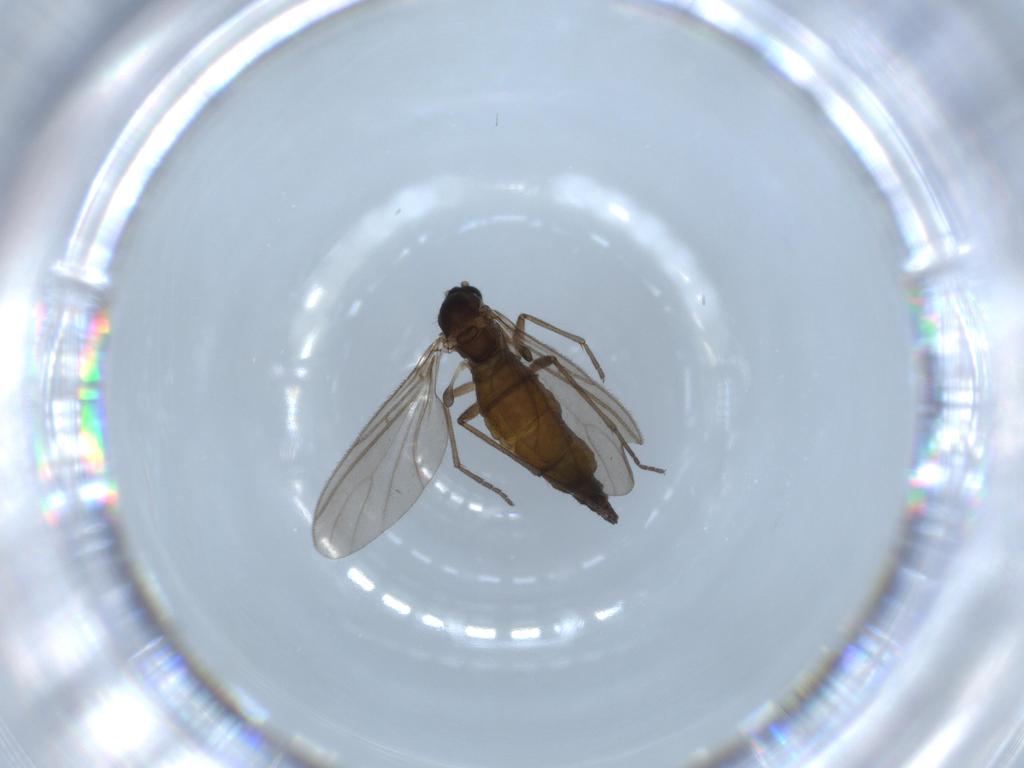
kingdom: Animalia
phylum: Arthropoda
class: Insecta
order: Diptera
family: Sciaridae
